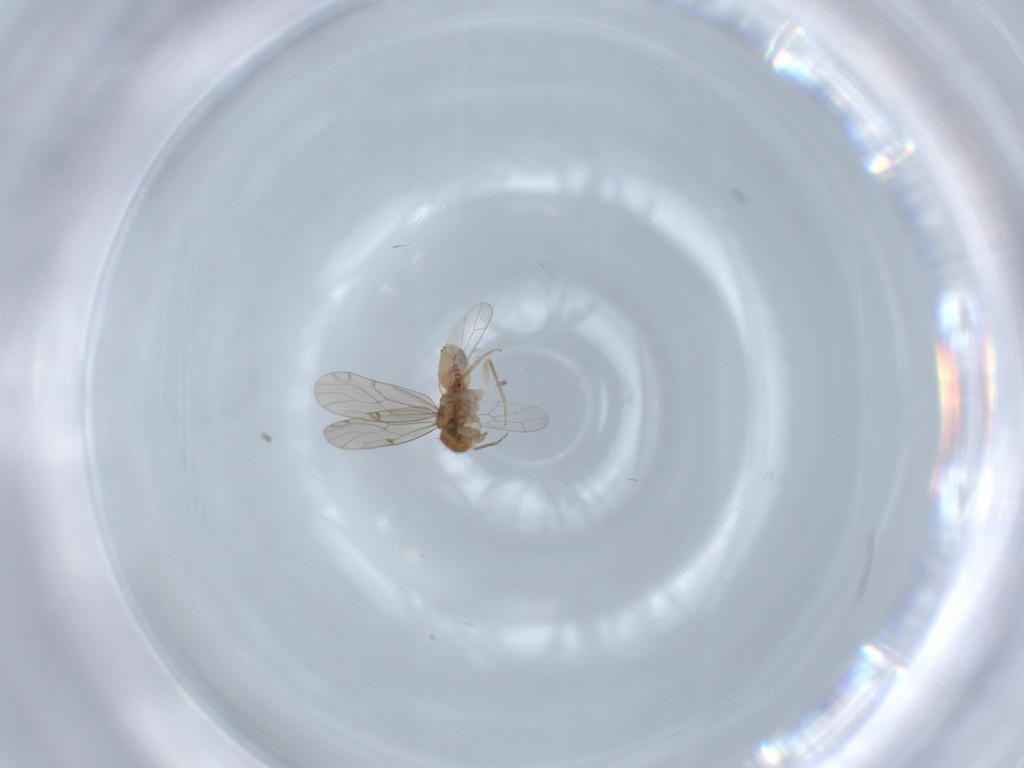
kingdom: Animalia
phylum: Arthropoda
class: Insecta
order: Psocodea
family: Ectopsocidae
